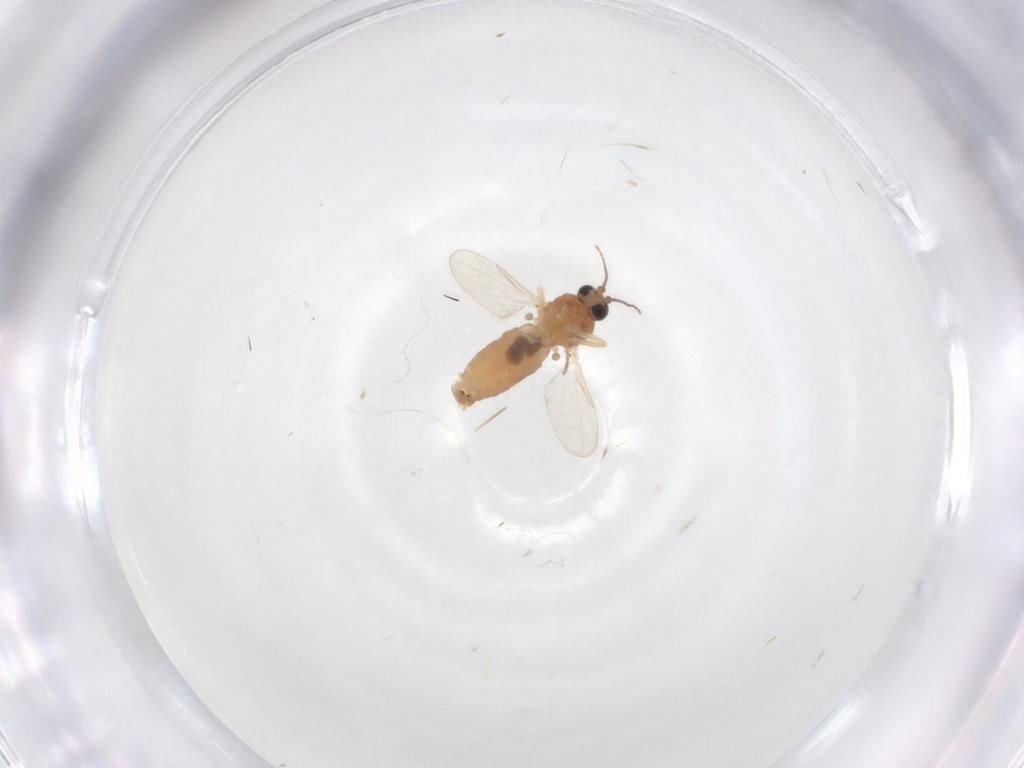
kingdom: Animalia
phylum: Arthropoda
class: Insecta
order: Diptera
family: Ceratopogonidae
